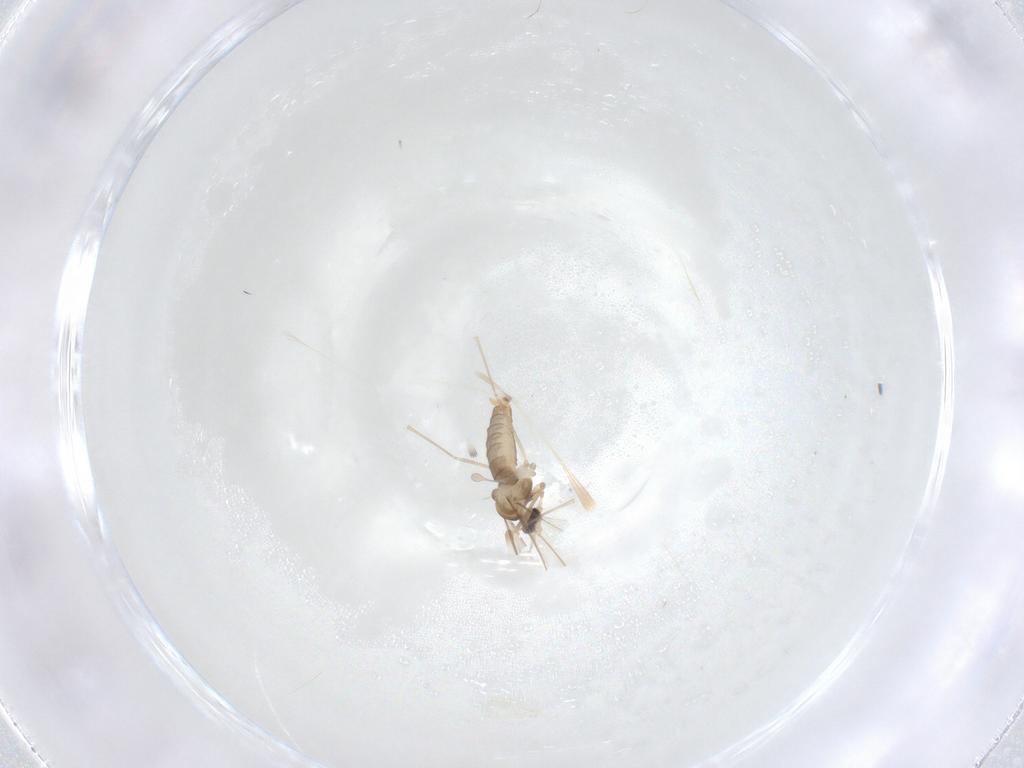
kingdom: Animalia
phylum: Arthropoda
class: Insecta
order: Diptera
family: Cecidomyiidae
